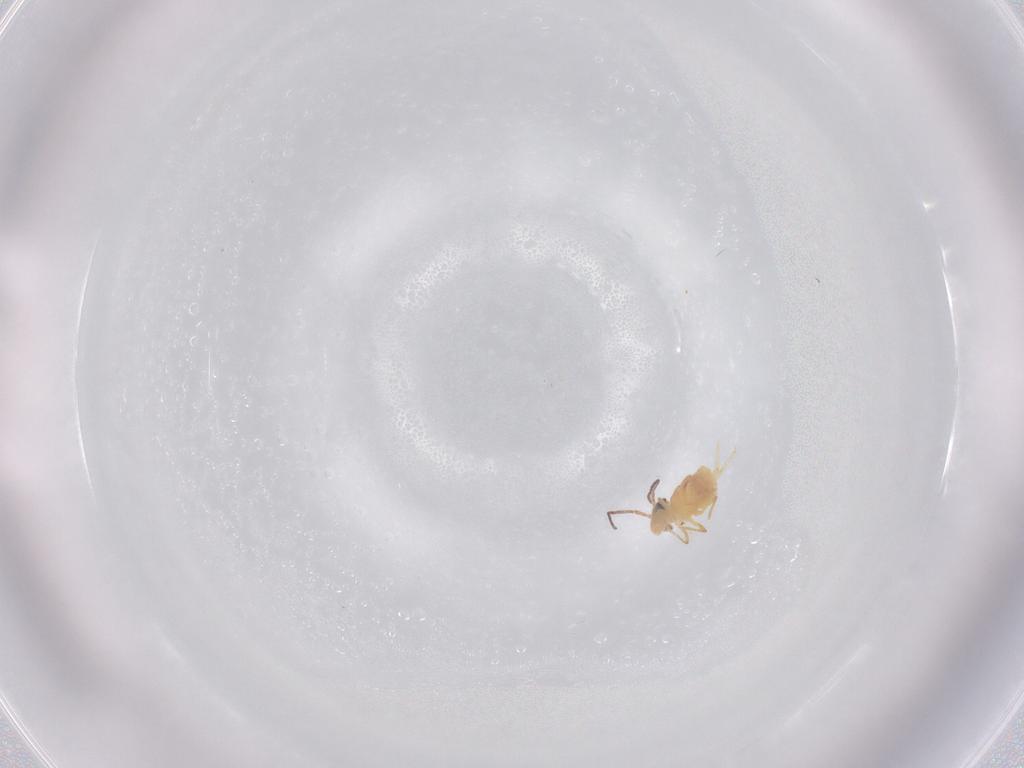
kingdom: Animalia
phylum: Arthropoda
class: Collembola
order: Symphypleona
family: Bourletiellidae
